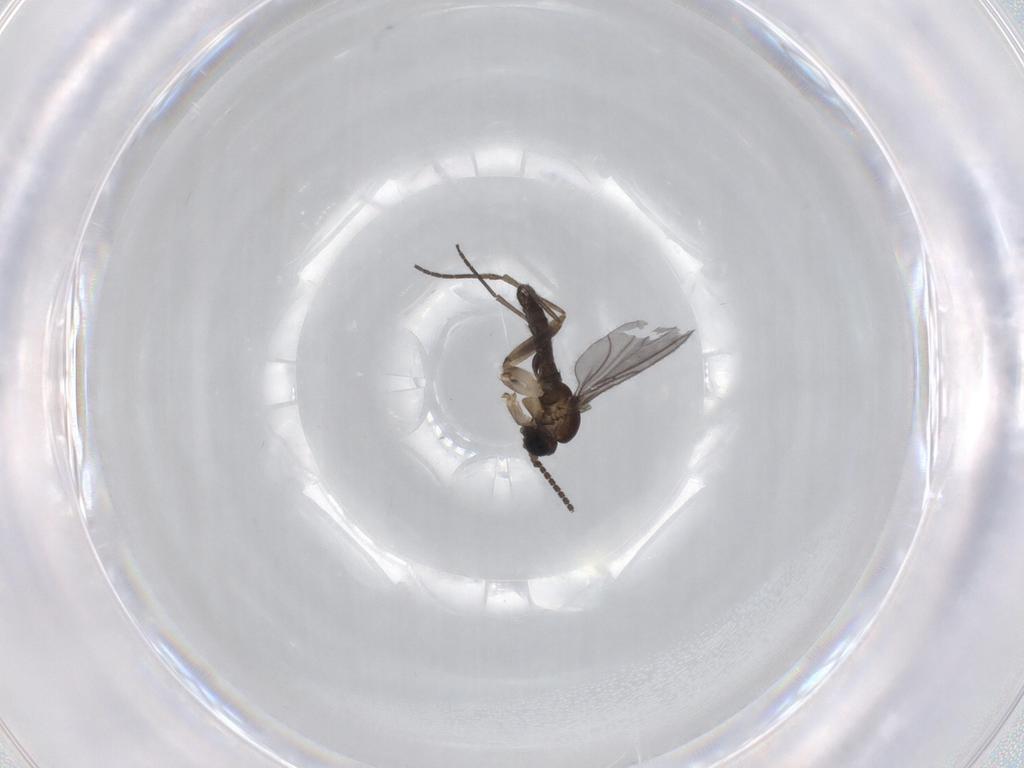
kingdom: Animalia
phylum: Arthropoda
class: Insecta
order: Diptera
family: Sciaridae
